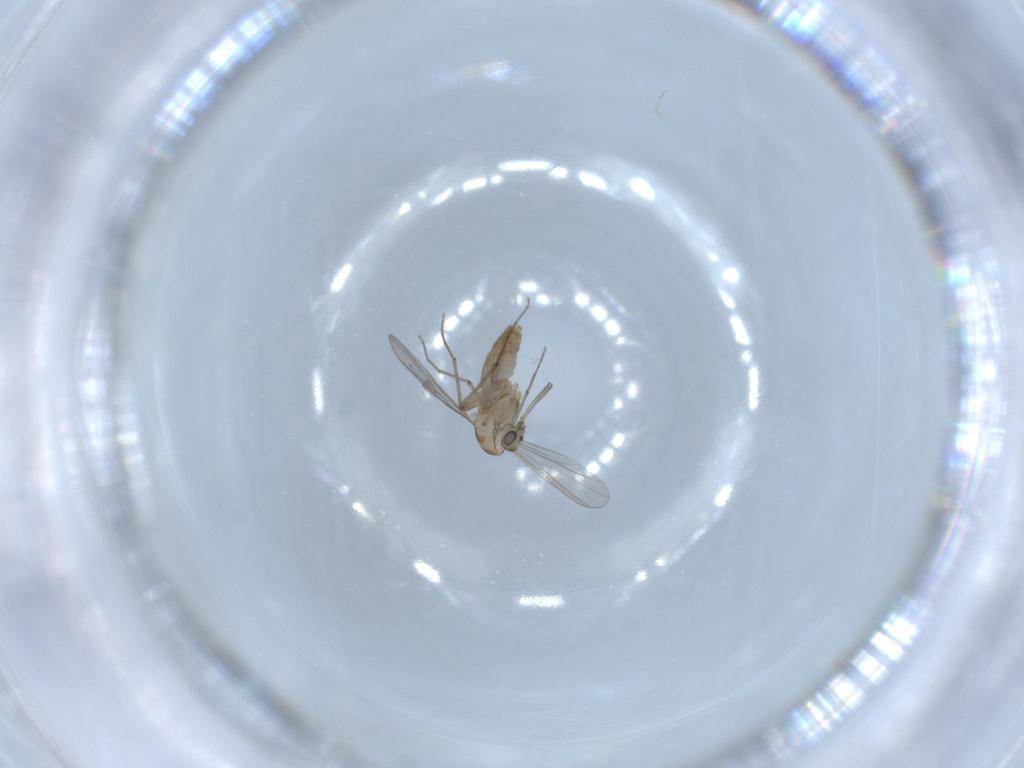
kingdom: Animalia
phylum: Arthropoda
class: Insecta
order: Diptera
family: Chironomidae
